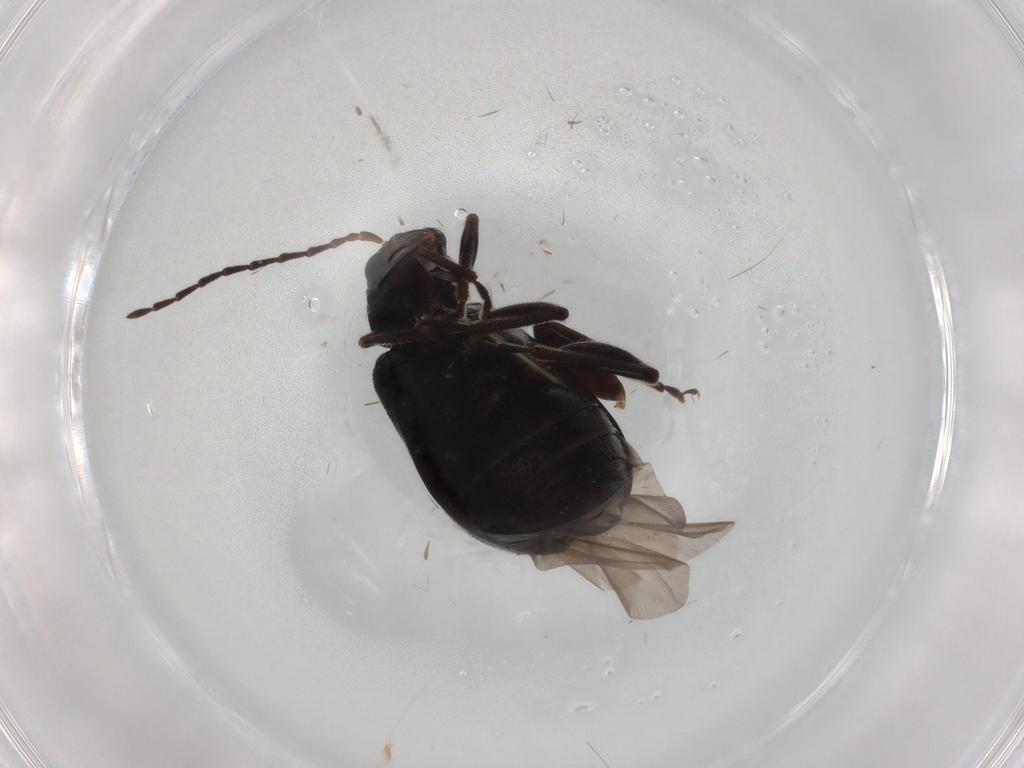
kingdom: Animalia
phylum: Arthropoda
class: Insecta
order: Coleoptera
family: Chrysomelidae
